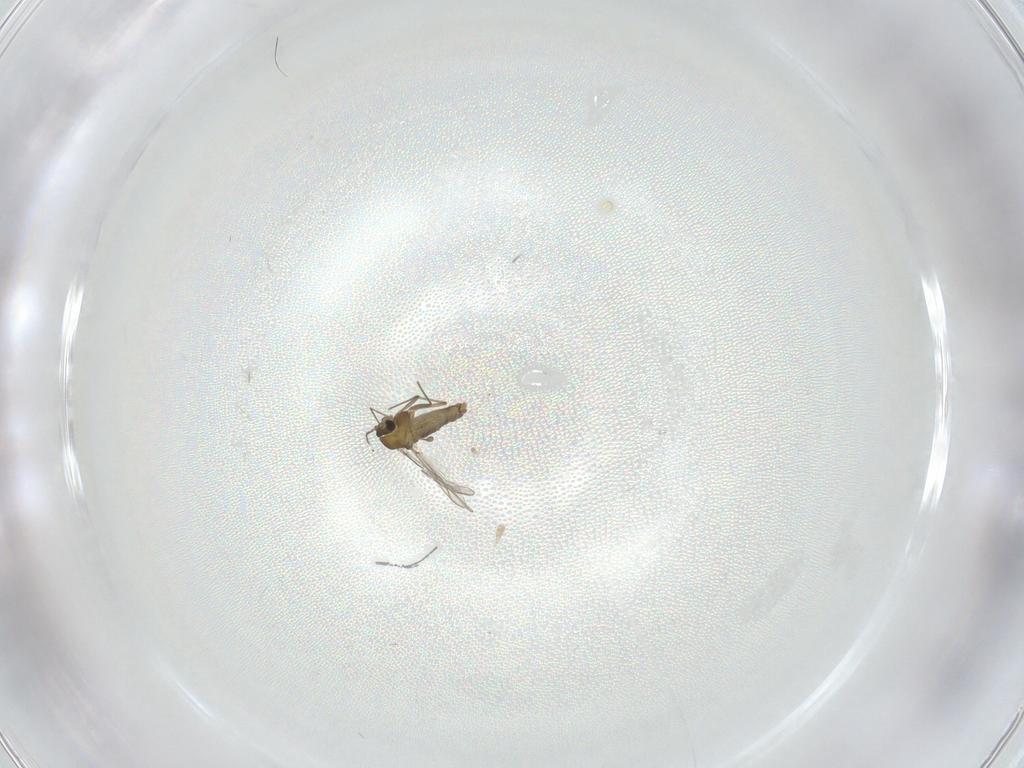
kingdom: Animalia
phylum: Arthropoda
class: Insecta
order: Diptera
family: Chironomidae
